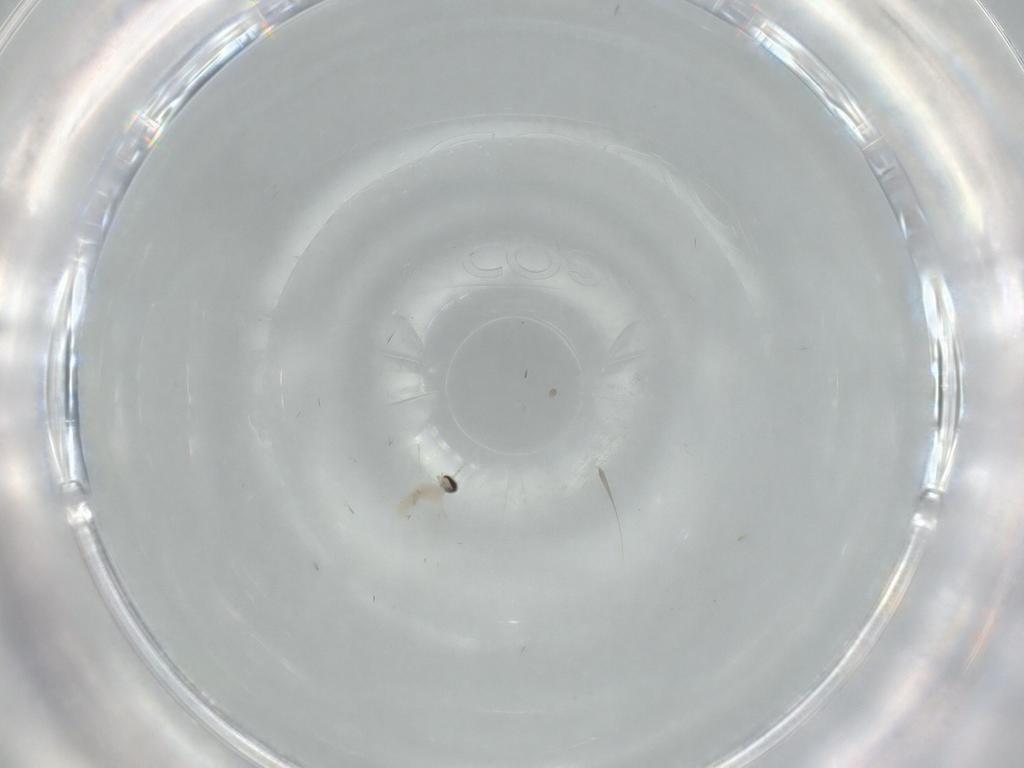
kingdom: Animalia
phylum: Arthropoda
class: Insecta
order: Diptera
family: Cecidomyiidae
